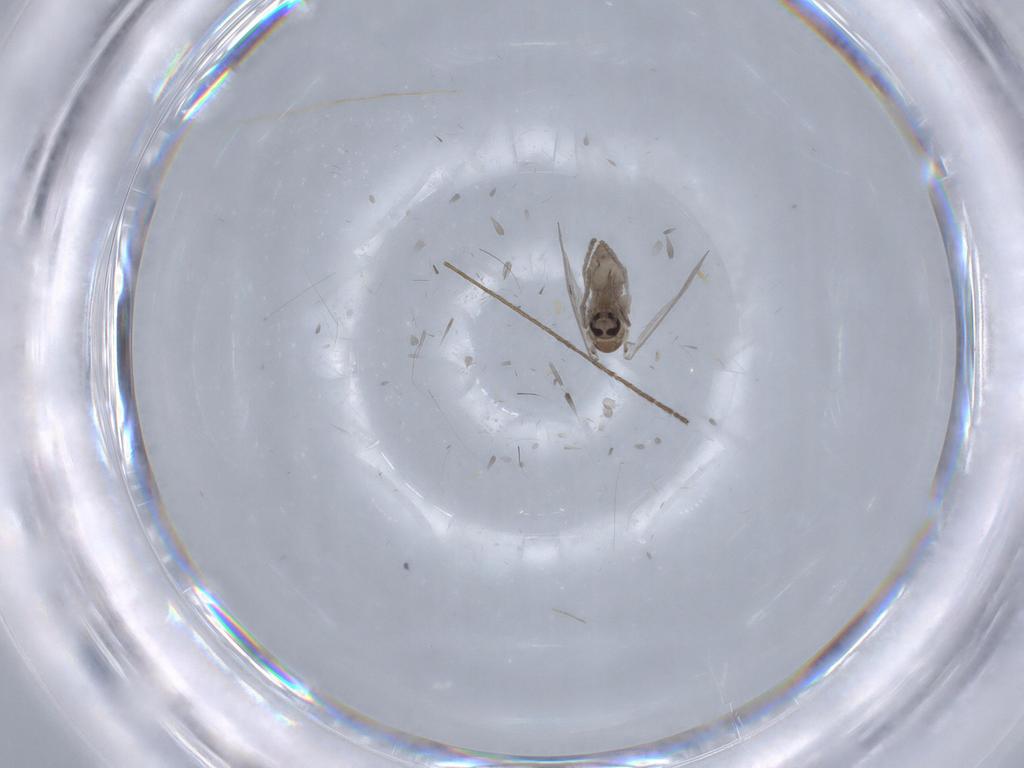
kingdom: Animalia
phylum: Arthropoda
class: Insecta
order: Diptera
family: Psychodidae
